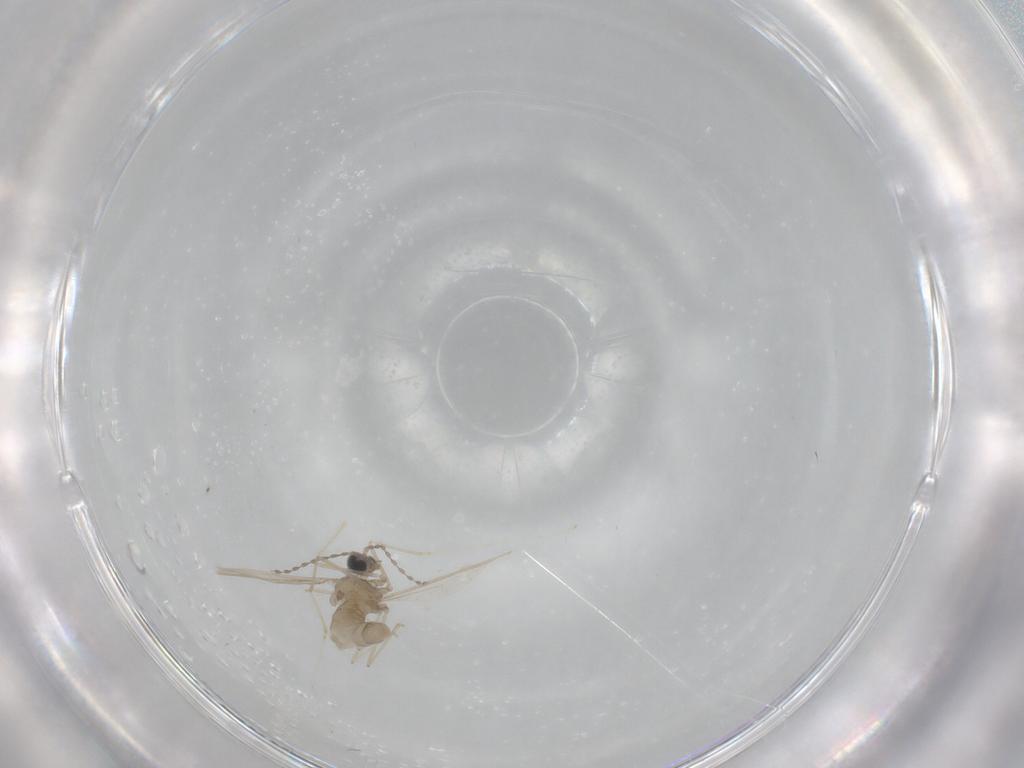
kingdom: Animalia
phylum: Arthropoda
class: Insecta
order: Diptera
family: Cecidomyiidae
